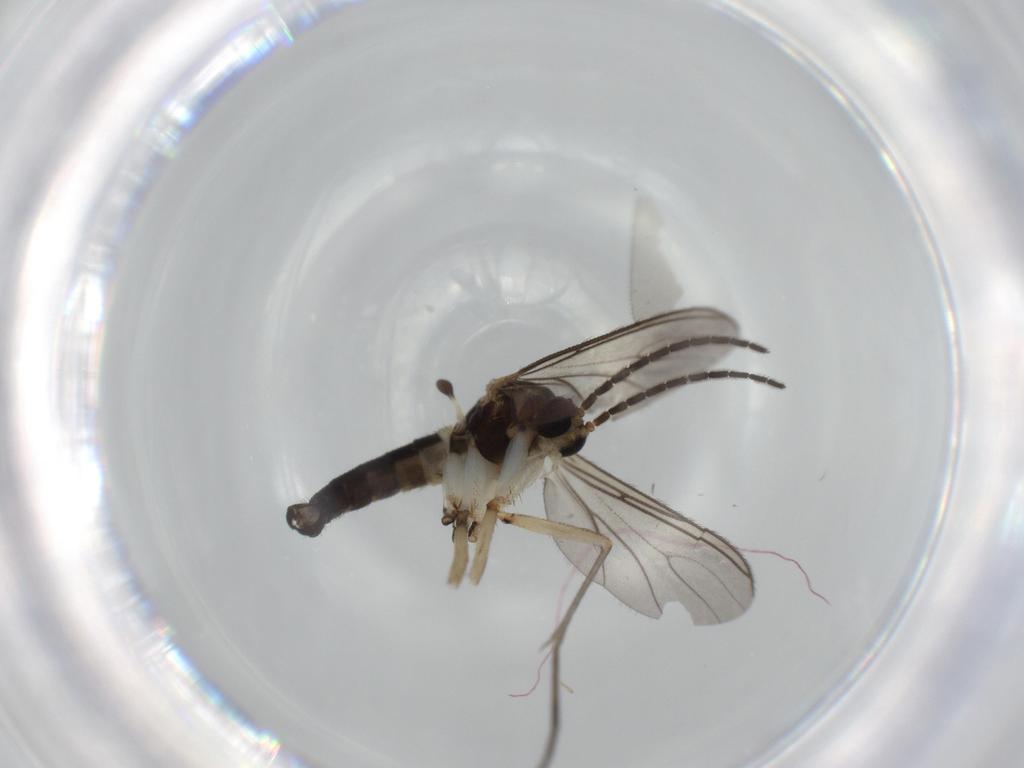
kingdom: Animalia
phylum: Arthropoda
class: Insecta
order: Diptera
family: Sciaridae
